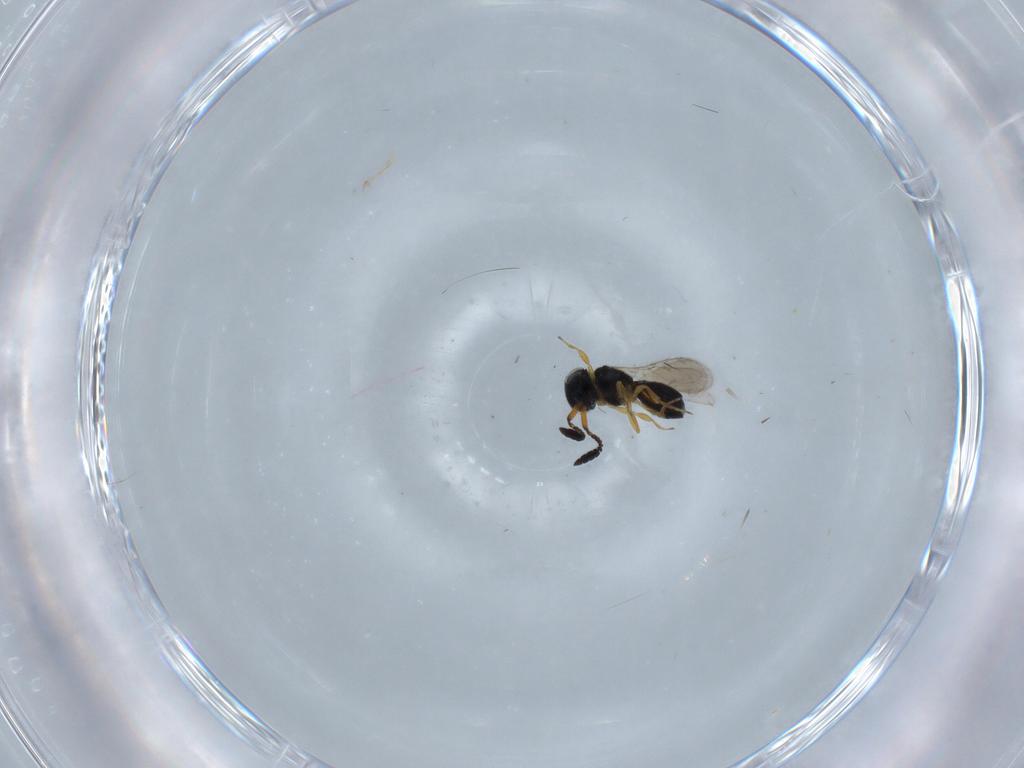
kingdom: Animalia
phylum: Arthropoda
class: Insecta
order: Hymenoptera
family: Scelionidae
